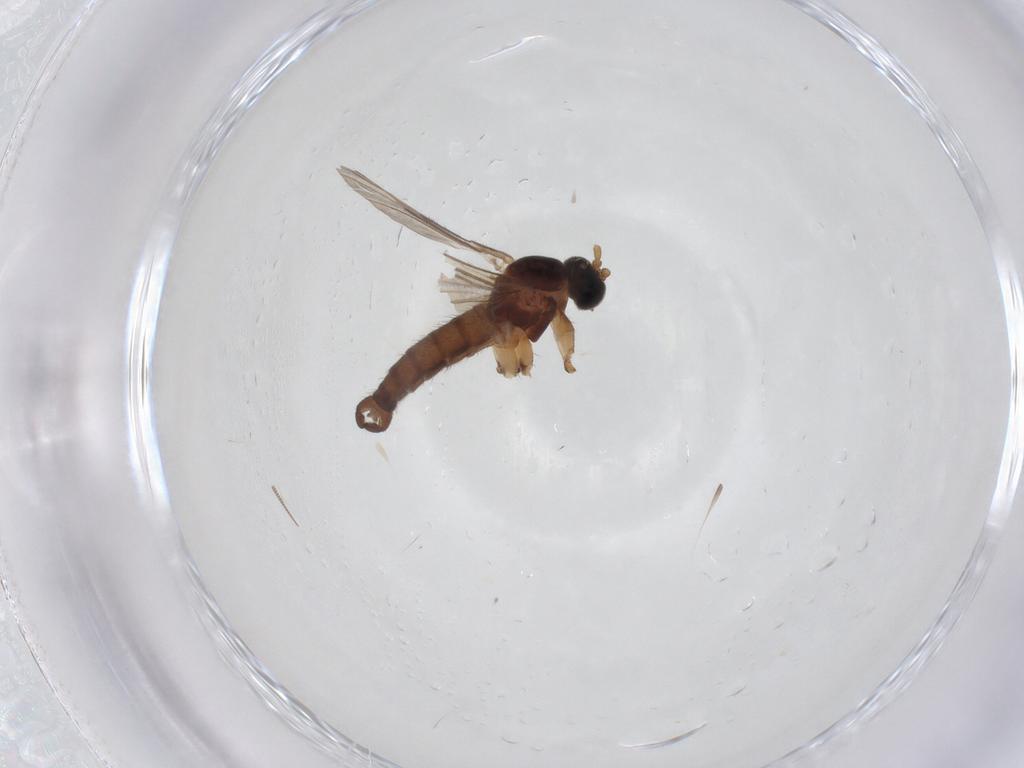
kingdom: Animalia
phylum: Arthropoda
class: Insecta
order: Diptera
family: Sciaridae
